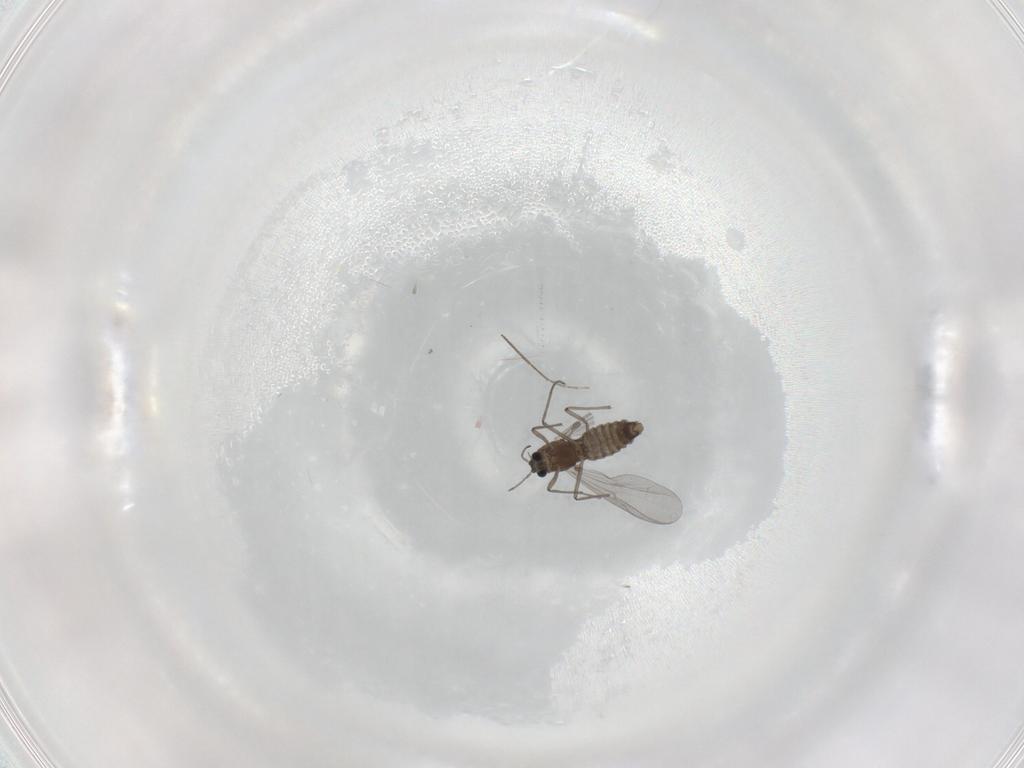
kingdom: Animalia
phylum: Arthropoda
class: Insecta
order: Diptera
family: Chironomidae
